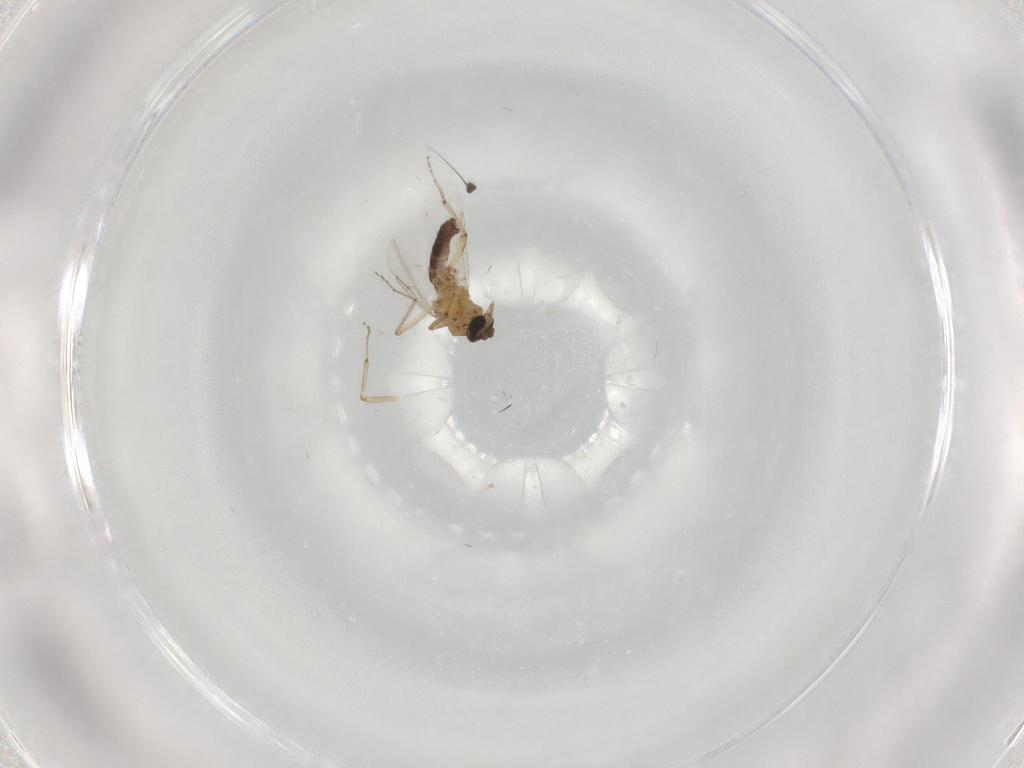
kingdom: Animalia
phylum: Arthropoda
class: Insecta
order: Diptera
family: Ceratopogonidae
